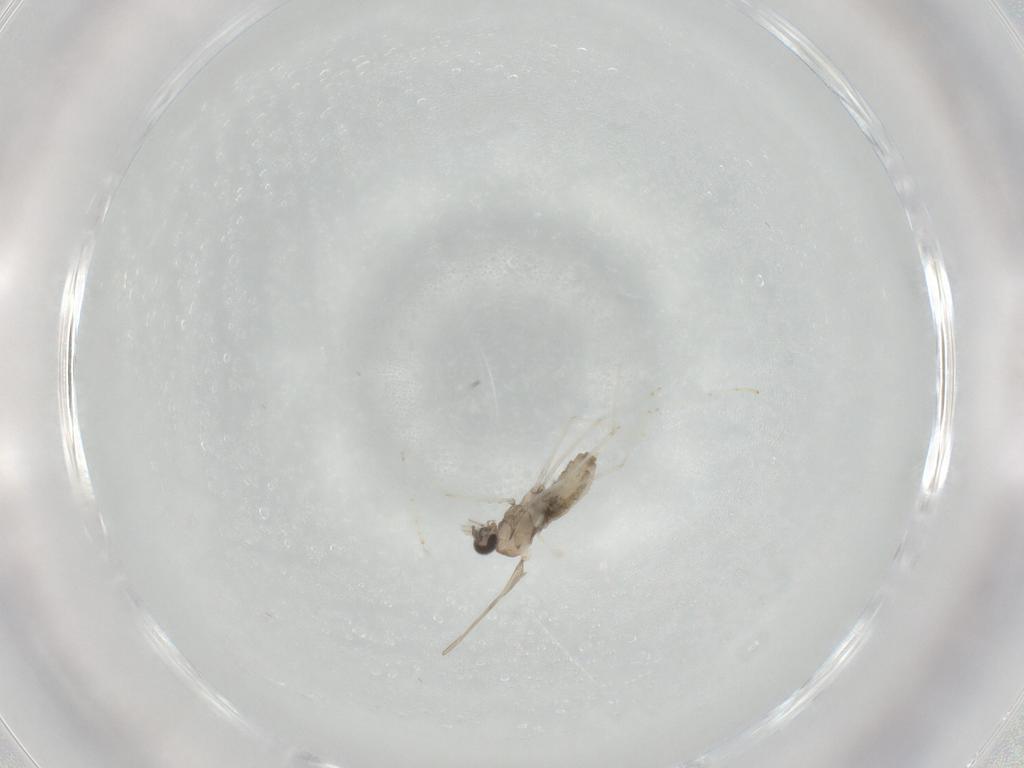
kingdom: Animalia
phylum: Arthropoda
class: Insecta
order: Diptera
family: Cecidomyiidae
